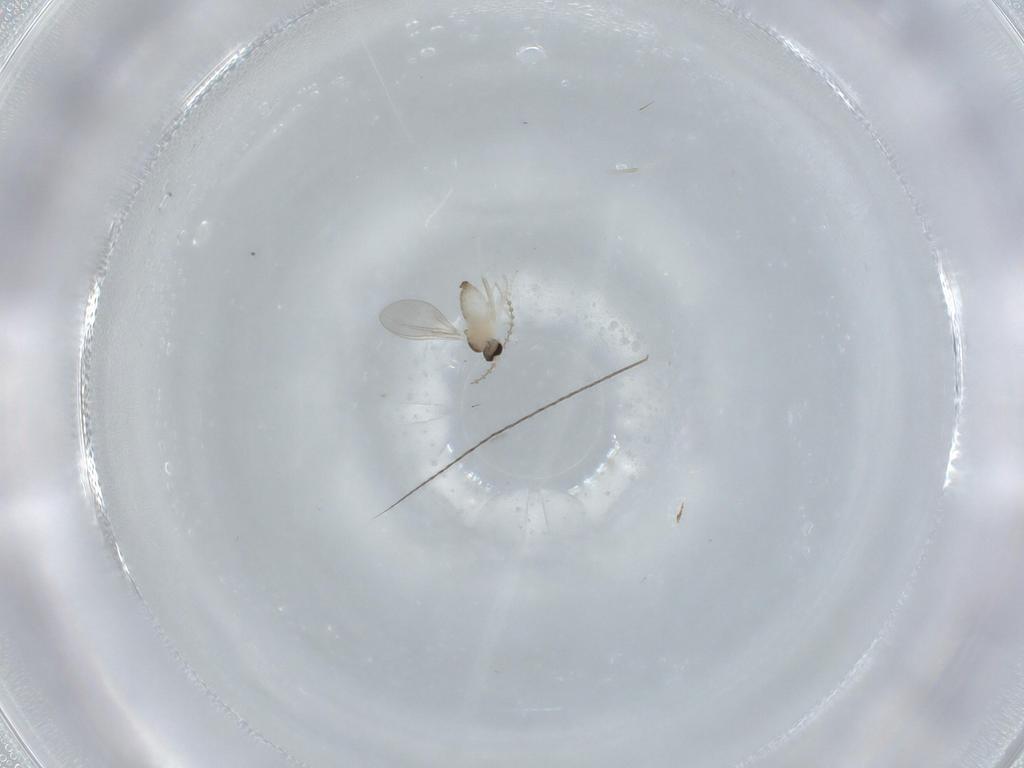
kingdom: Animalia
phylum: Arthropoda
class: Insecta
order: Diptera
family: Cecidomyiidae
